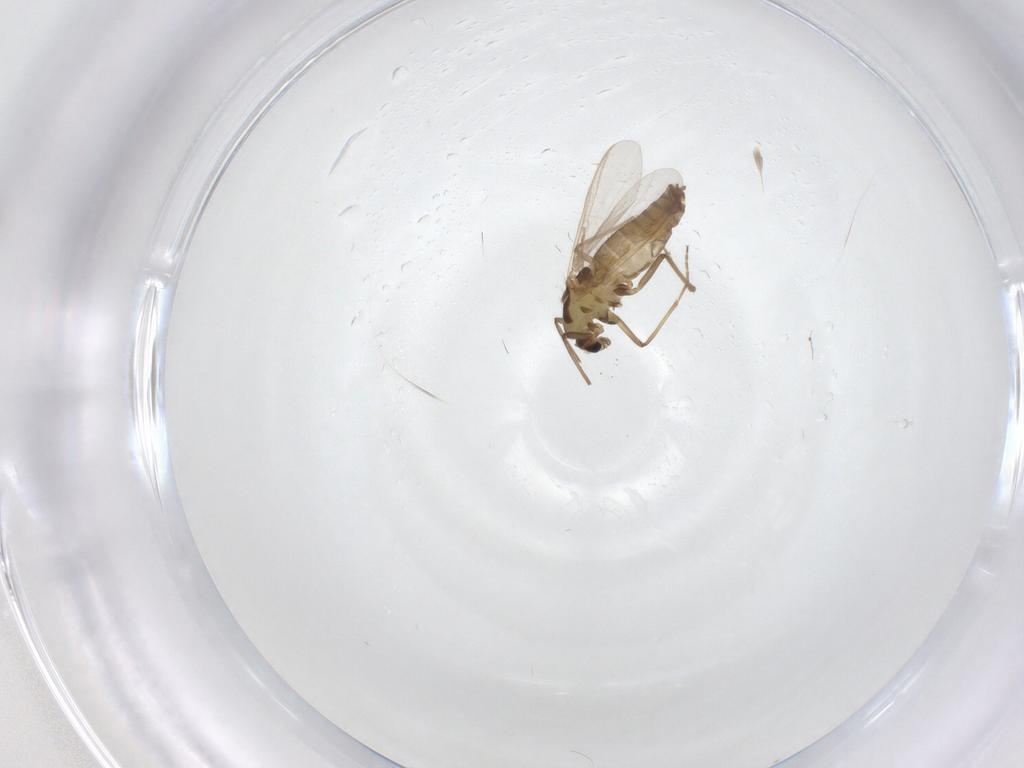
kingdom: Animalia
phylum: Arthropoda
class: Insecta
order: Diptera
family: Chironomidae
